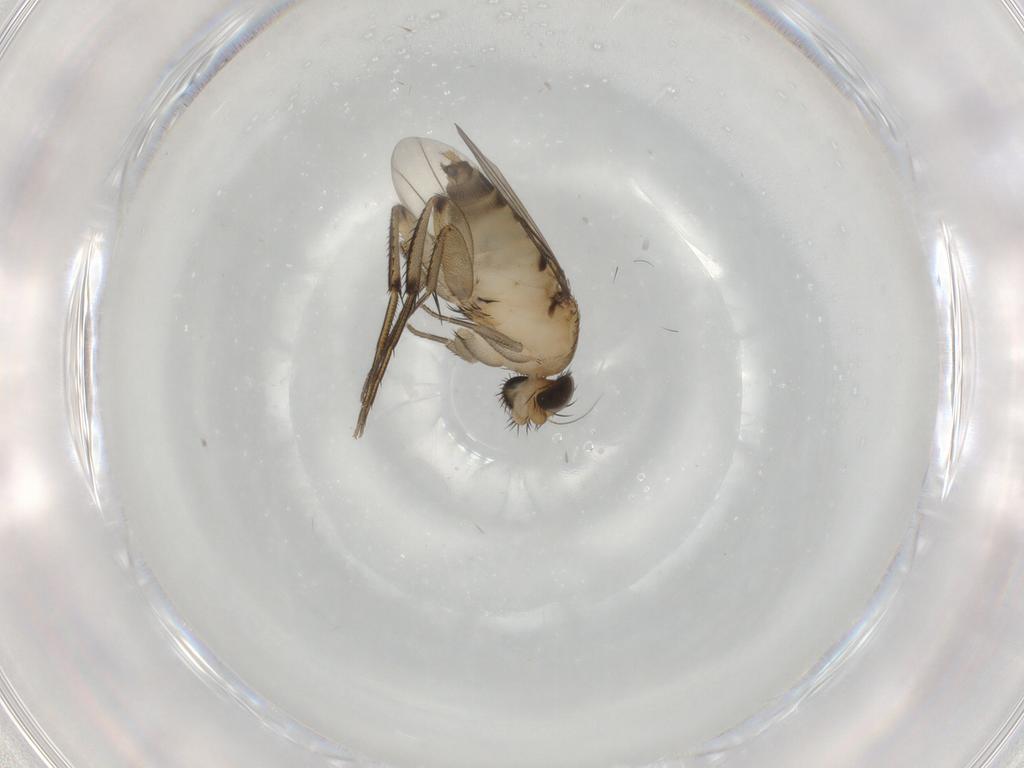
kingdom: Animalia
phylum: Arthropoda
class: Insecta
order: Diptera
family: Phoridae
